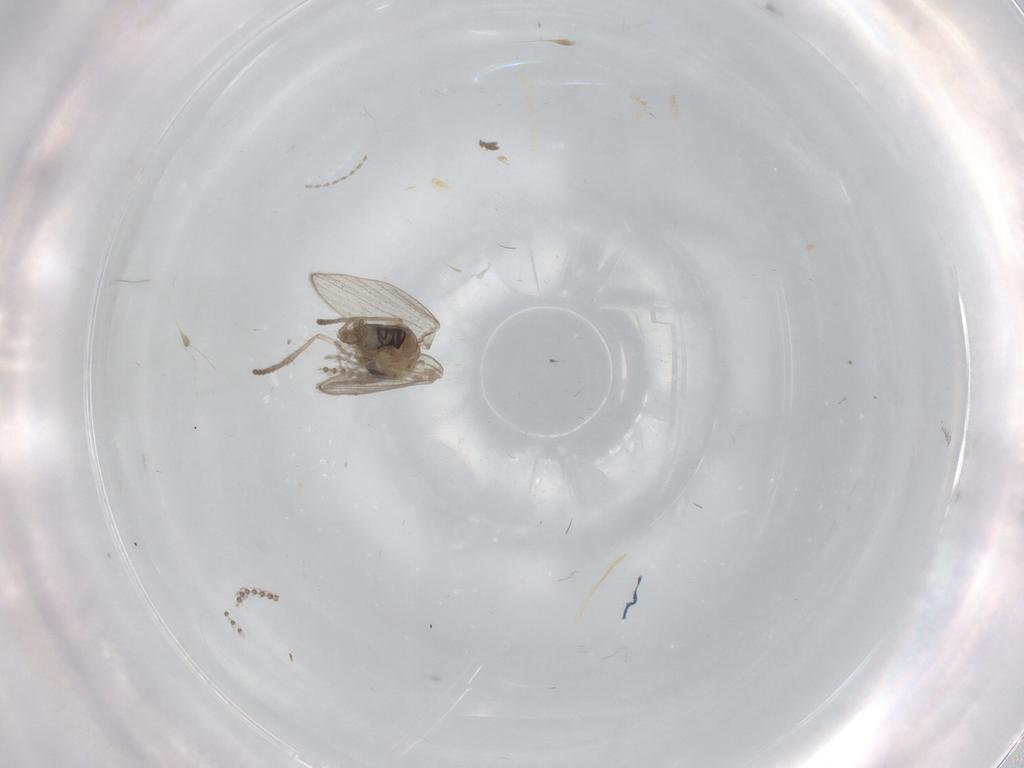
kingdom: Animalia
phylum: Arthropoda
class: Insecta
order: Diptera
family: Psychodidae
